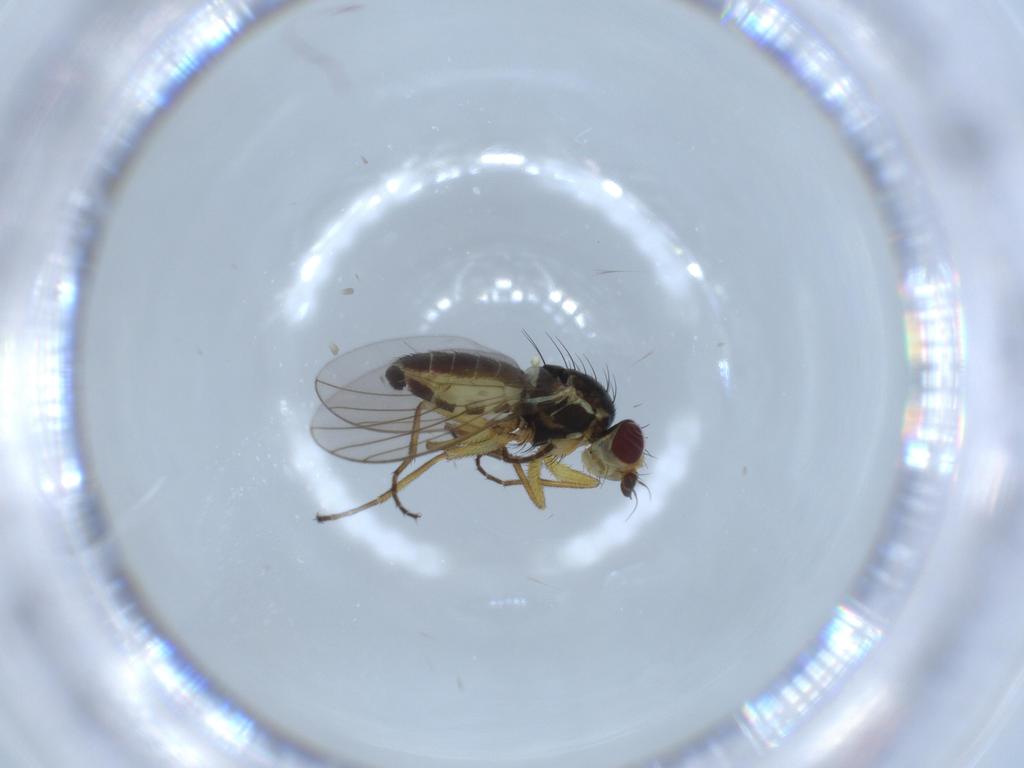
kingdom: Animalia
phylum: Arthropoda
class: Insecta
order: Diptera
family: Agromyzidae
